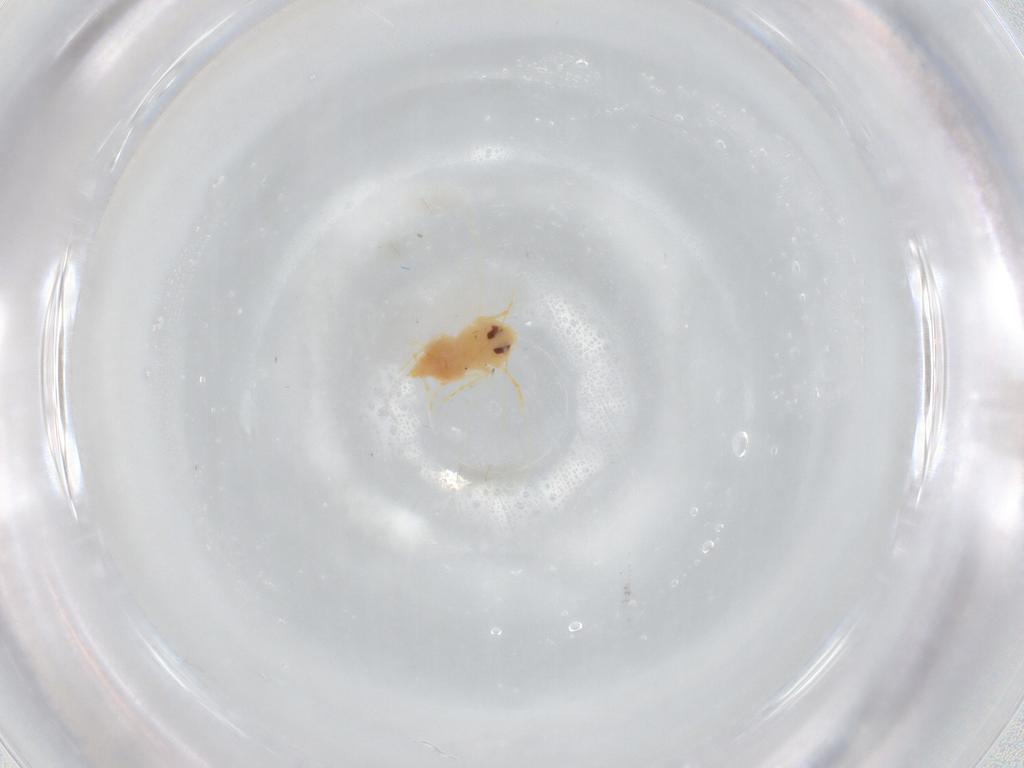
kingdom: Animalia
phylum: Arthropoda
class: Insecta
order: Hemiptera
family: Aleyrodidae
